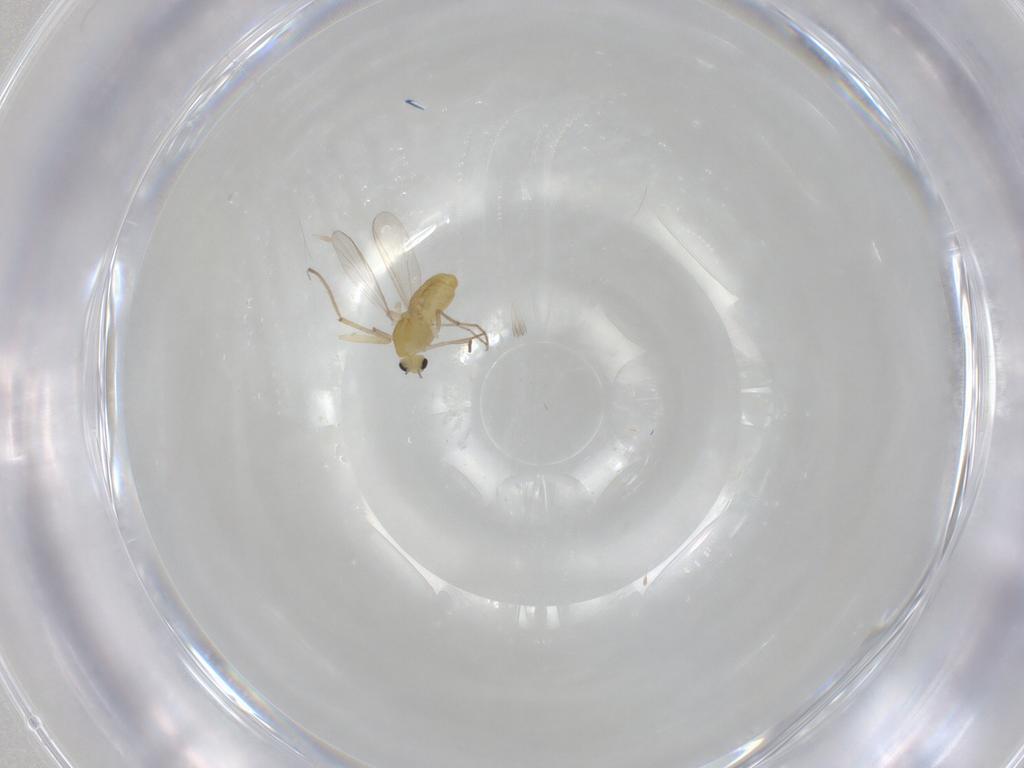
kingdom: Animalia
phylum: Arthropoda
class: Insecta
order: Diptera
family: Chironomidae
